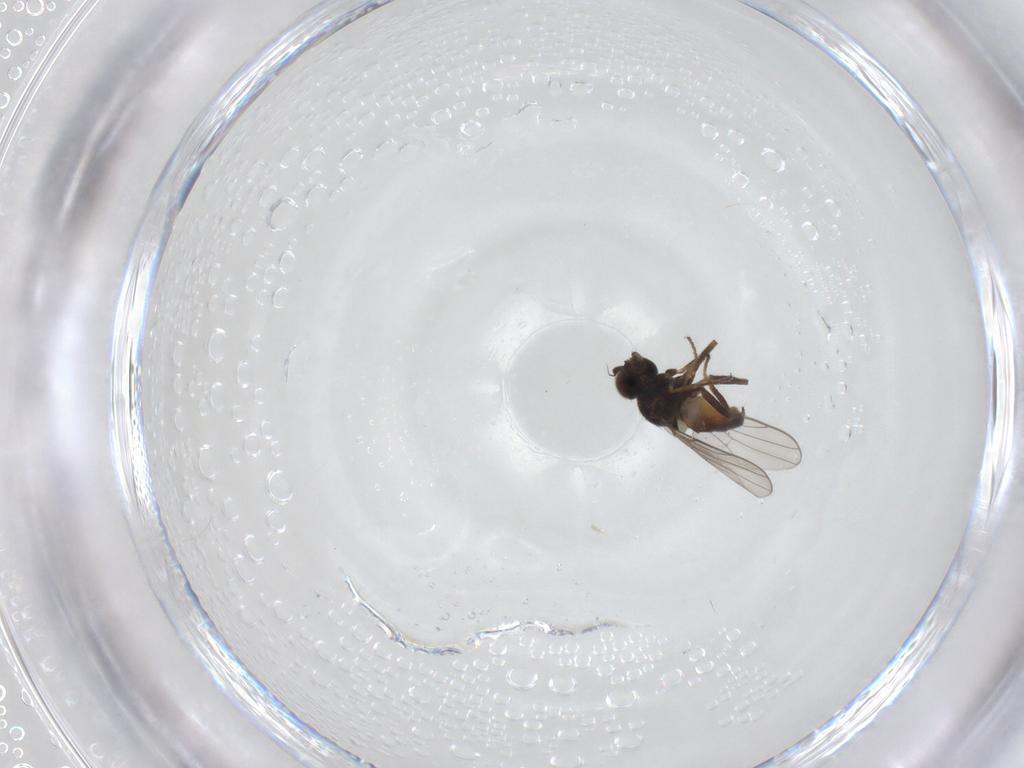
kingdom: Animalia
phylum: Arthropoda
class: Insecta
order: Diptera
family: Chloropidae
